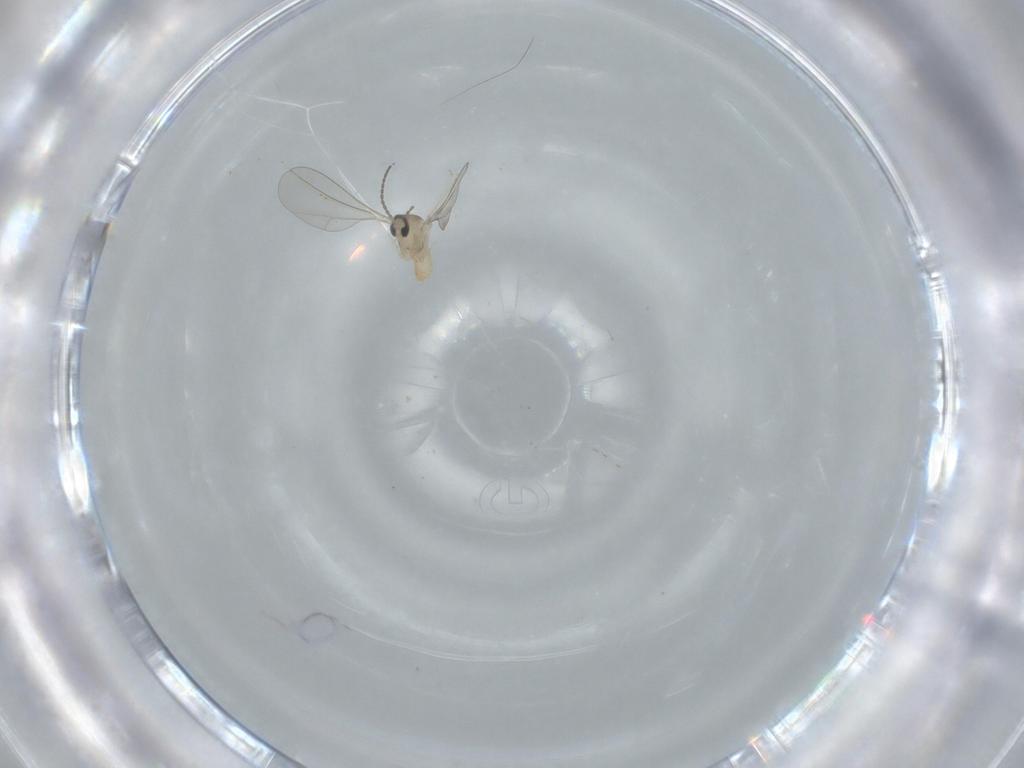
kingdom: Animalia
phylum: Arthropoda
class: Insecta
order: Diptera
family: Cecidomyiidae
